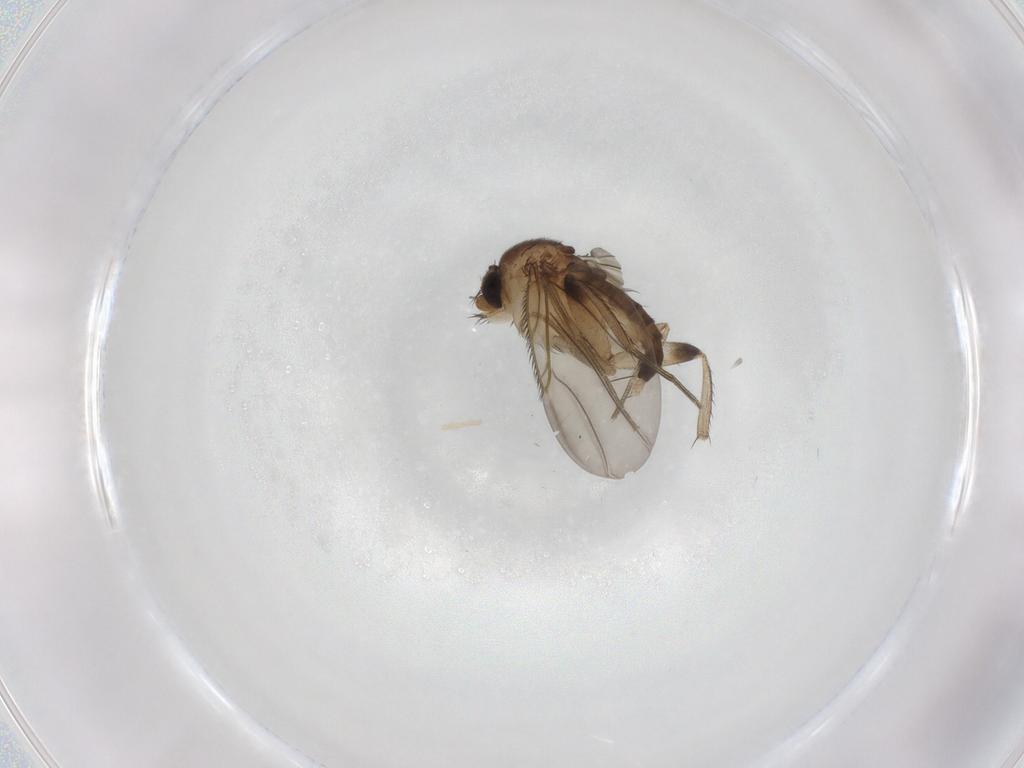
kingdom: Animalia
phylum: Arthropoda
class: Insecta
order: Diptera
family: Phoridae
